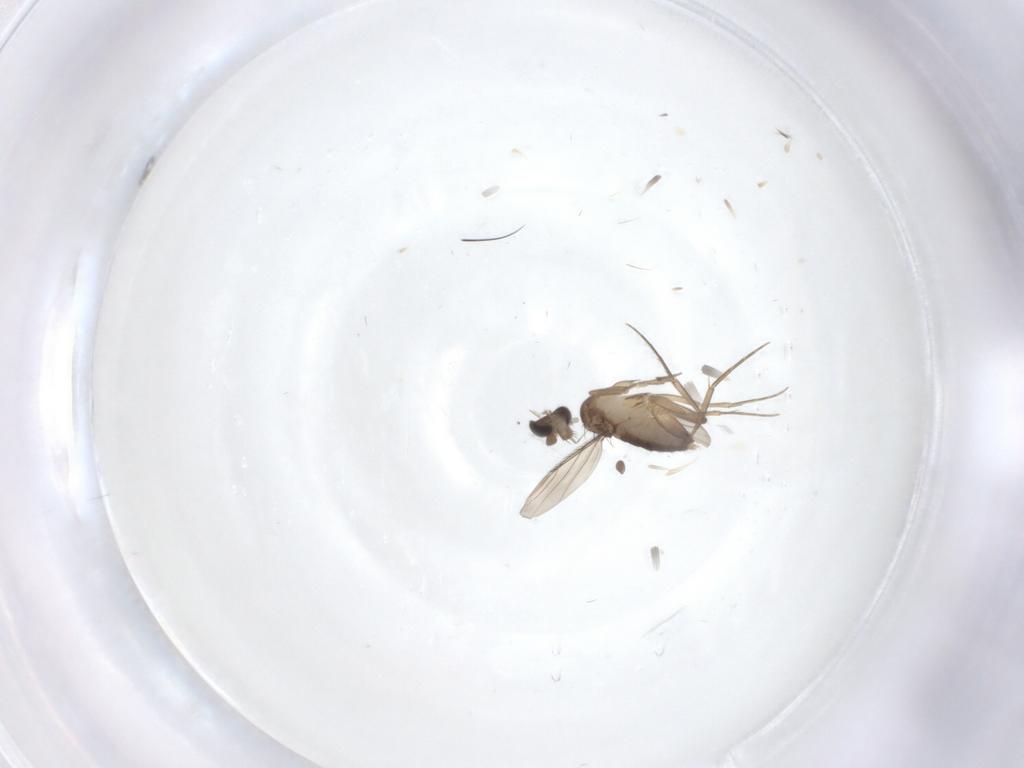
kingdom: Animalia
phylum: Arthropoda
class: Insecta
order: Diptera
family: Phoridae
